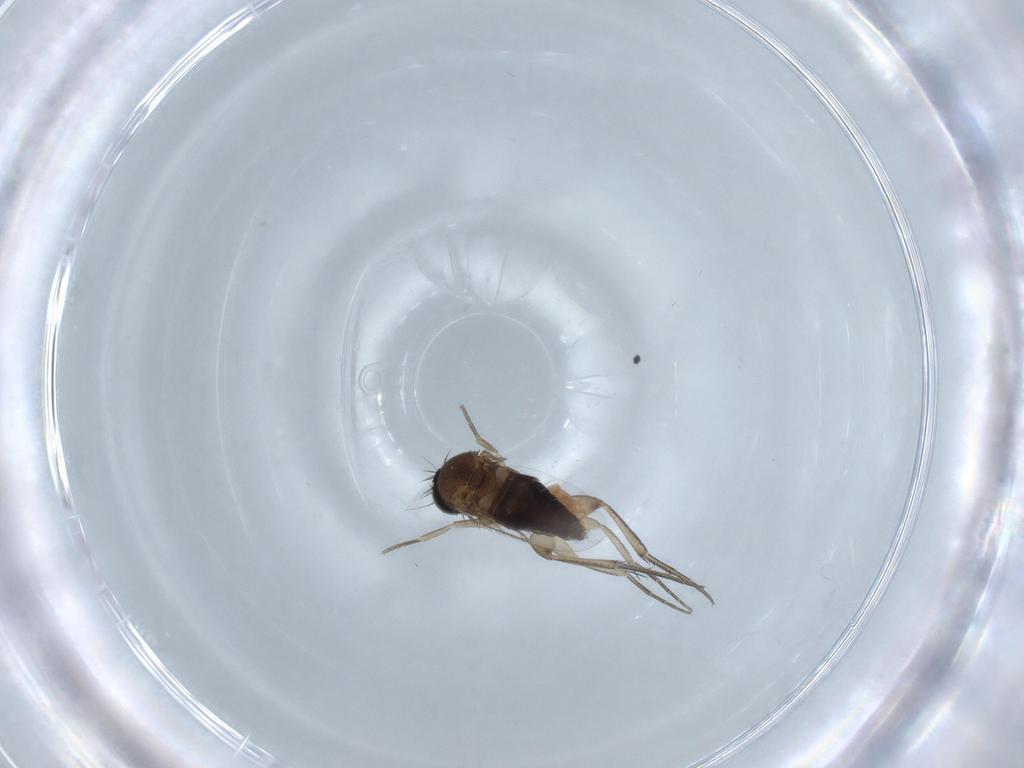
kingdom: Animalia
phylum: Arthropoda
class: Insecta
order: Diptera
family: Phoridae
